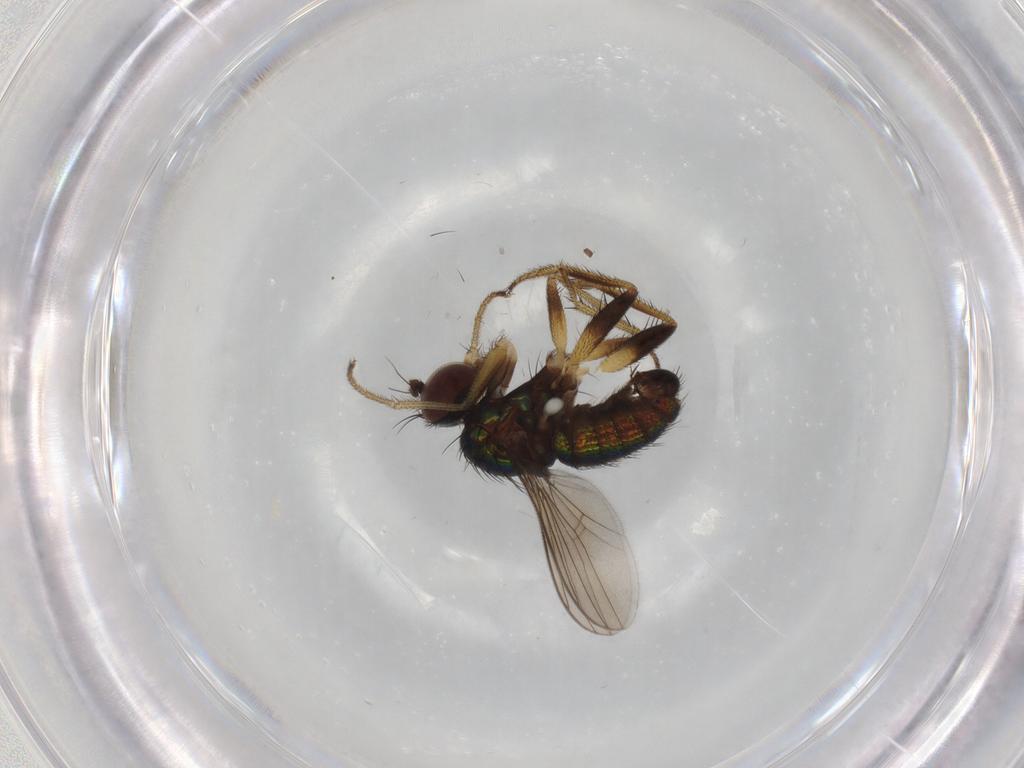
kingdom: Animalia
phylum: Arthropoda
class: Insecta
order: Diptera
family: Dolichopodidae
